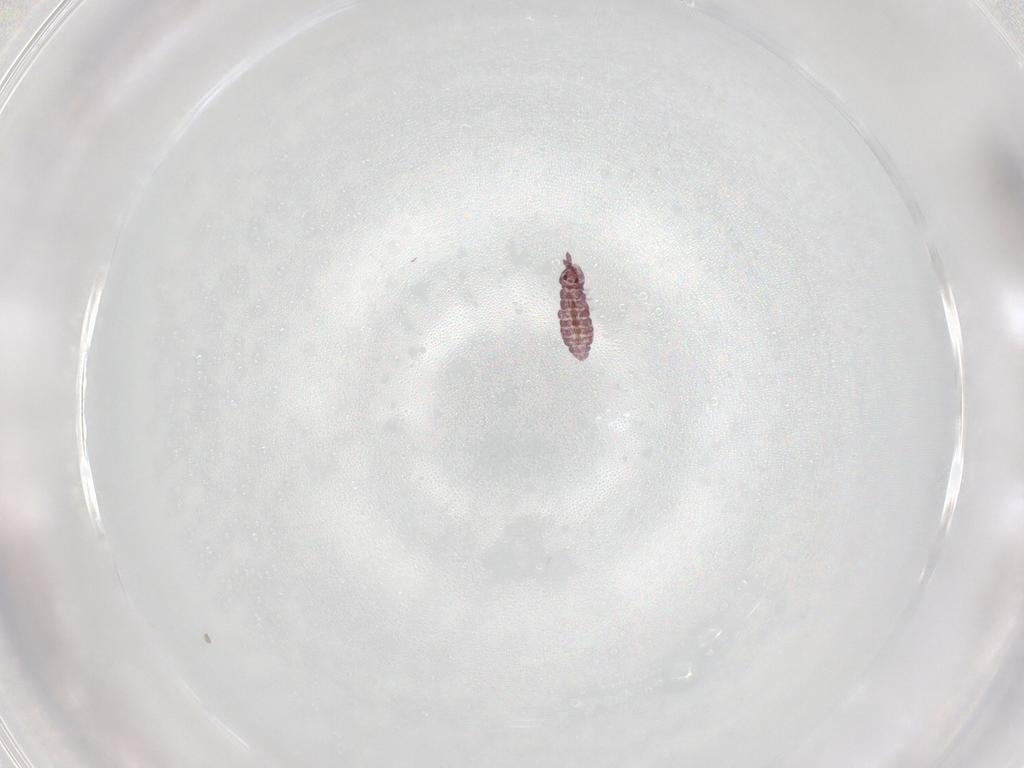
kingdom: Animalia
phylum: Arthropoda
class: Collembola
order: Poduromorpha
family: Hypogastruridae
